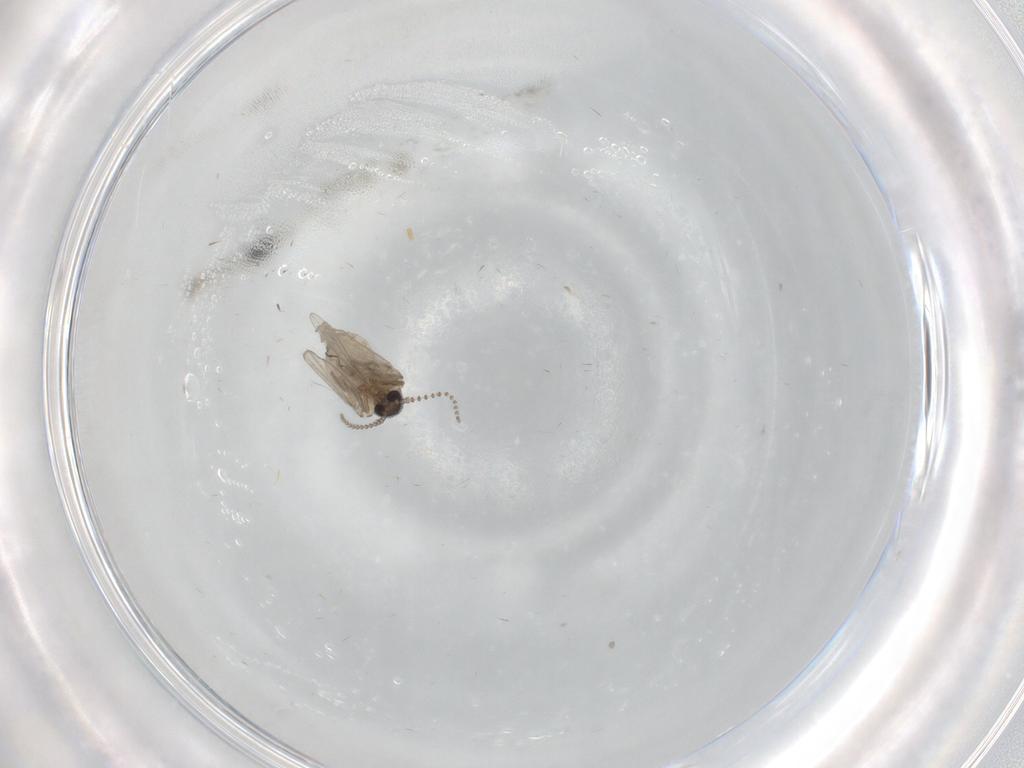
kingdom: Animalia
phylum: Arthropoda
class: Insecta
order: Diptera
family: Psychodidae
